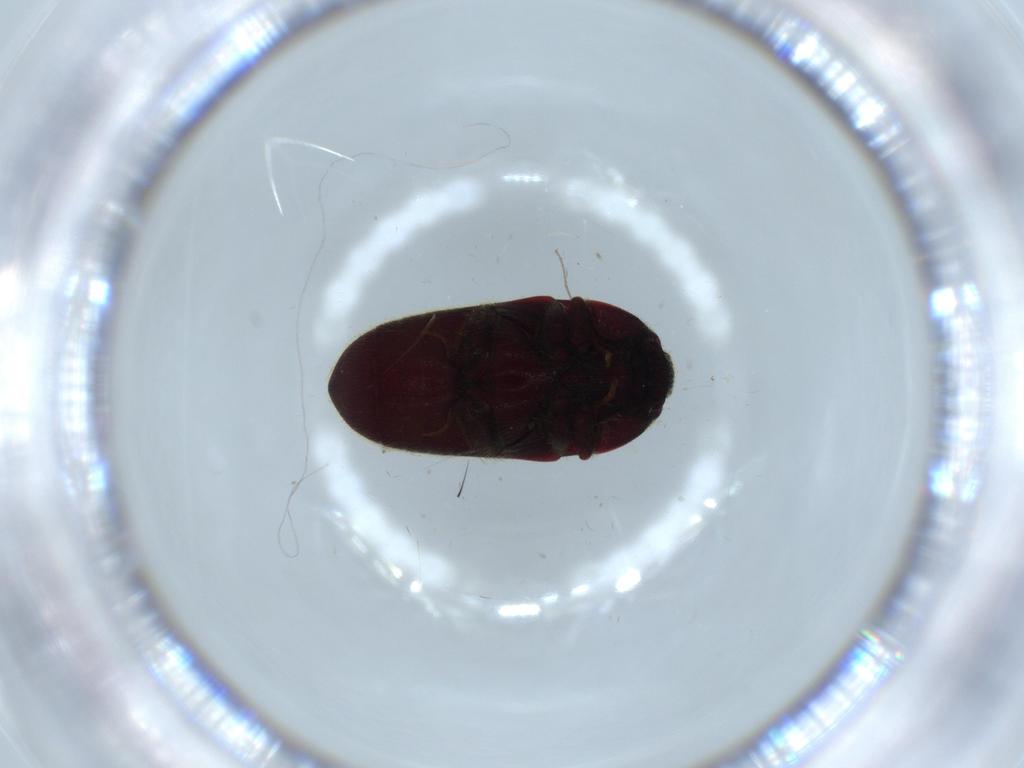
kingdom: Animalia
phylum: Arthropoda
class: Insecta
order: Coleoptera
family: Throscidae
